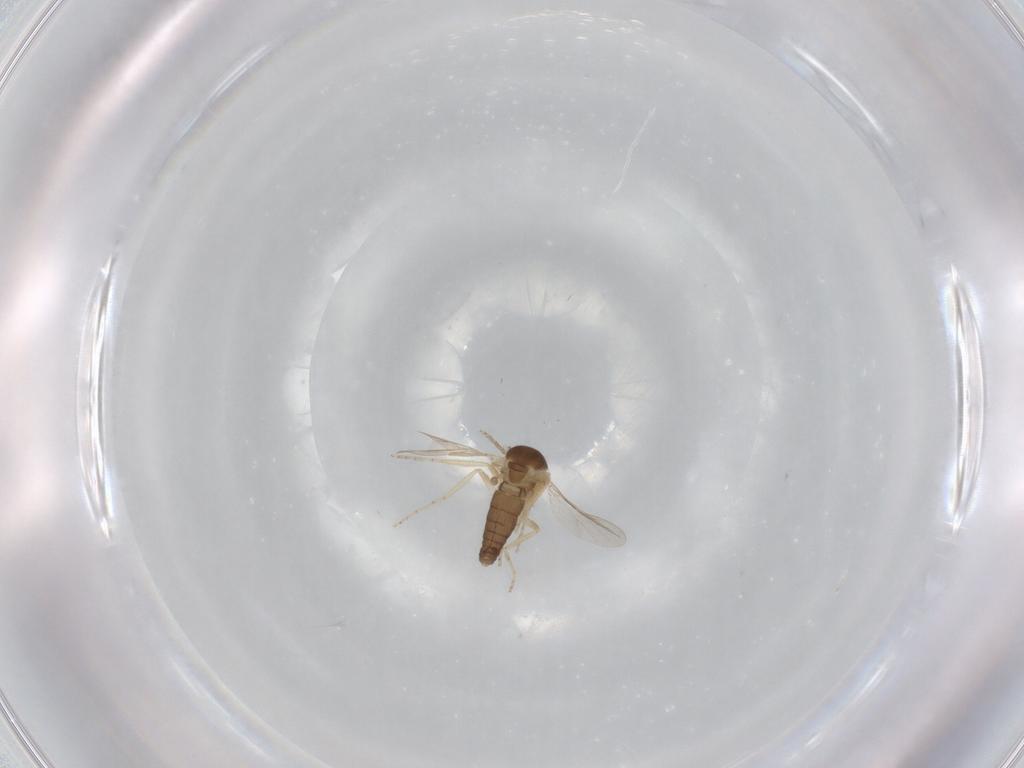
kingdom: Animalia
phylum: Arthropoda
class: Insecta
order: Diptera
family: Ceratopogonidae
